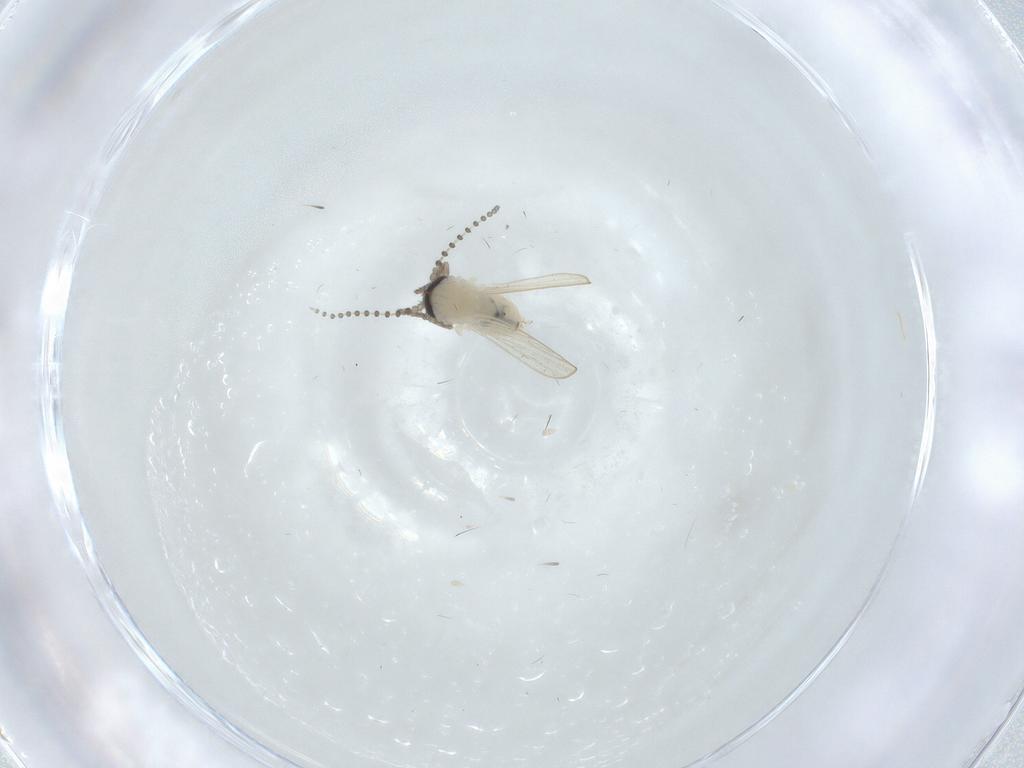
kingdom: Animalia
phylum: Arthropoda
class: Insecta
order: Diptera
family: Psychodidae
